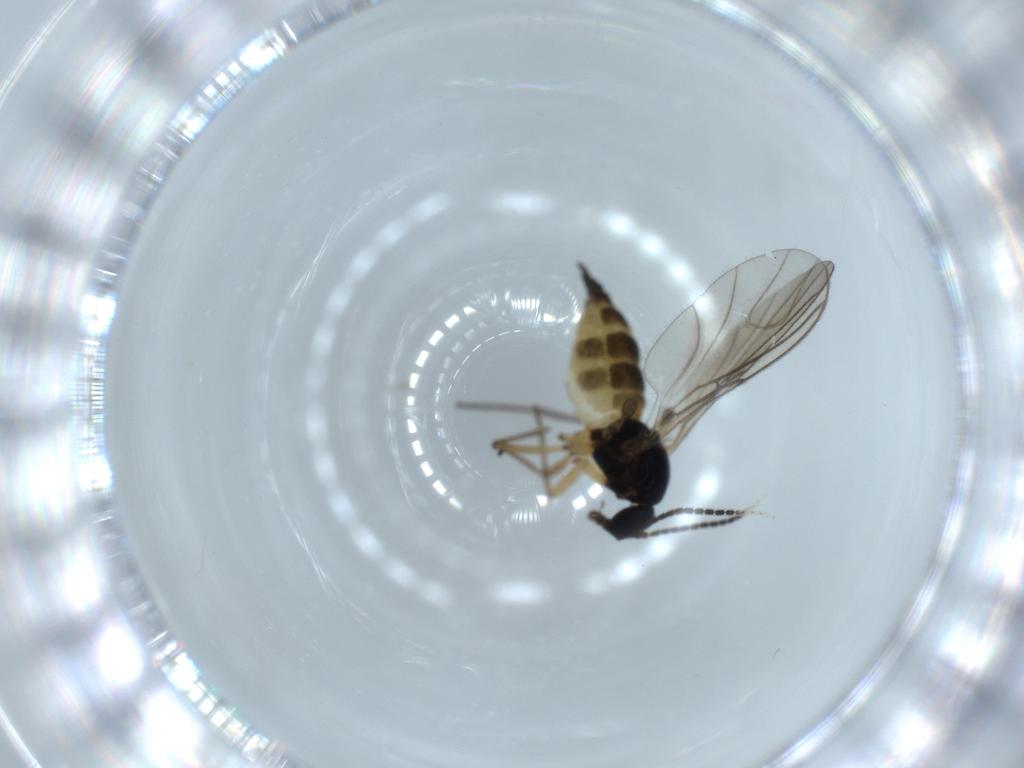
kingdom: Animalia
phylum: Arthropoda
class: Insecta
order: Diptera
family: Sciaridae
